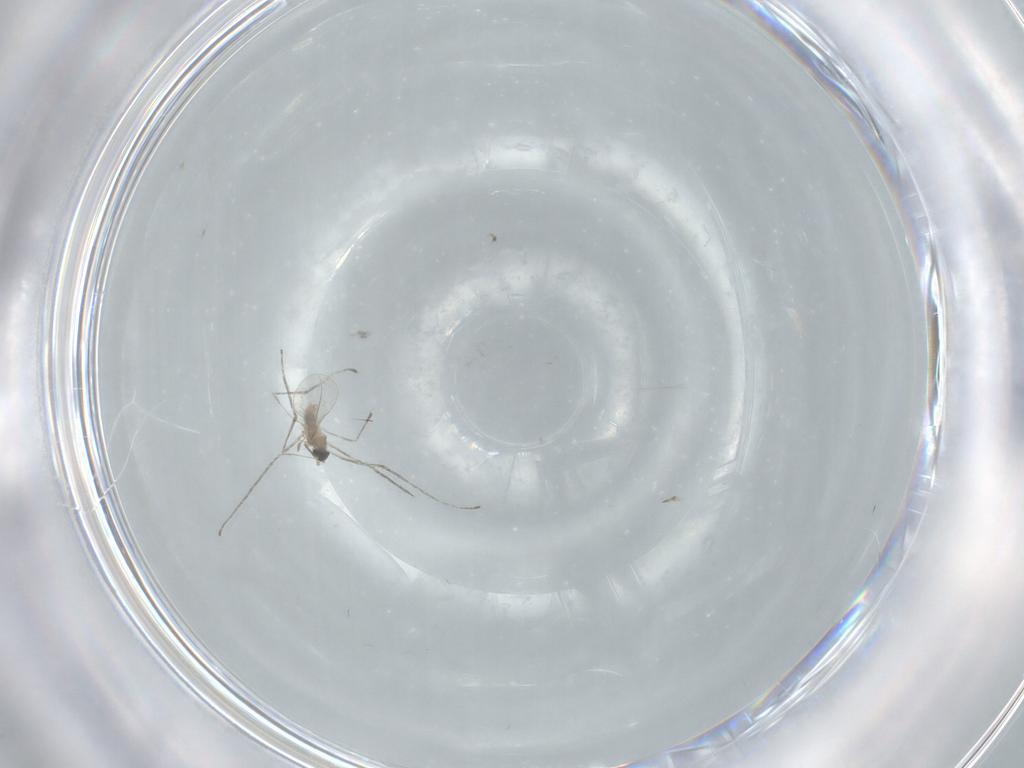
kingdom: Animalia
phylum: Arthropoda
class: Insecta
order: Diptera
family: Cecidomyiidae
